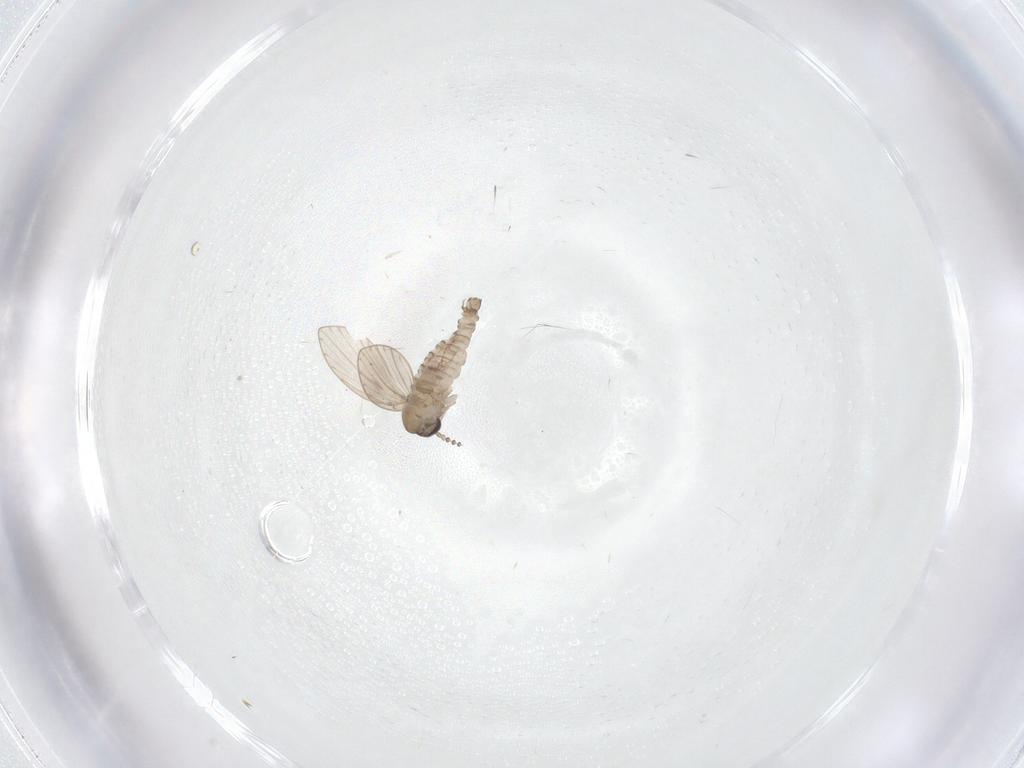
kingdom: Animalia
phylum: Arthropoda
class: Insecta
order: Diptera
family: Psychodidae
